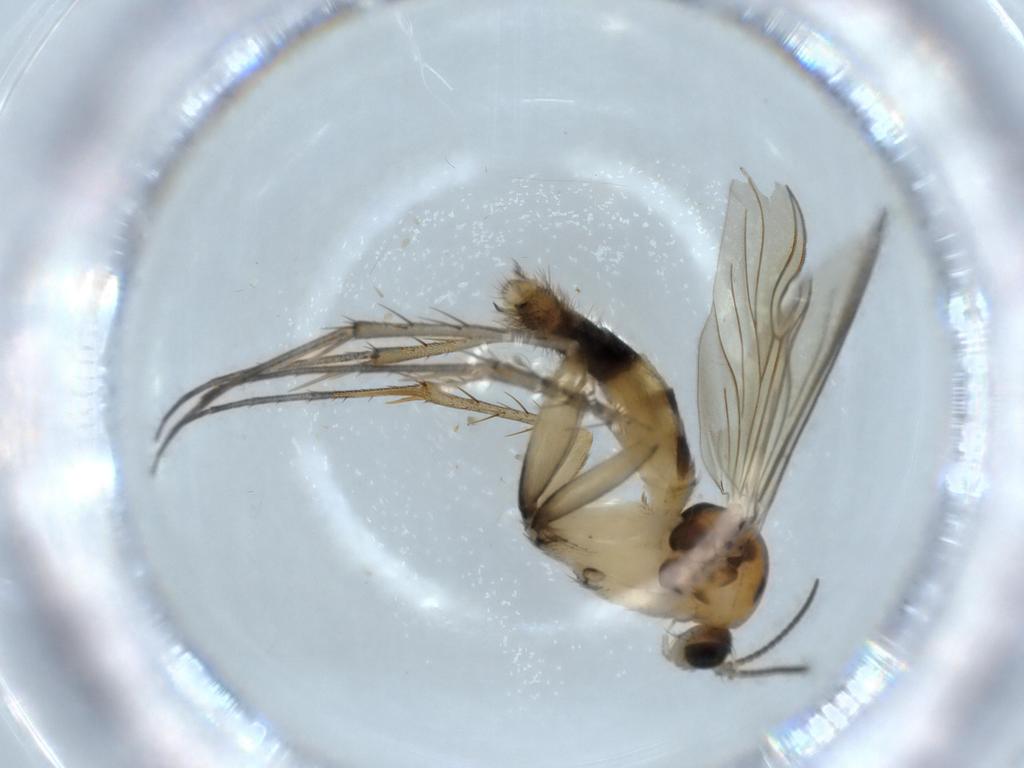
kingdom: Animalia
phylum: Arthropoda
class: Insecta
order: Diptera
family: Mycetophilidae
